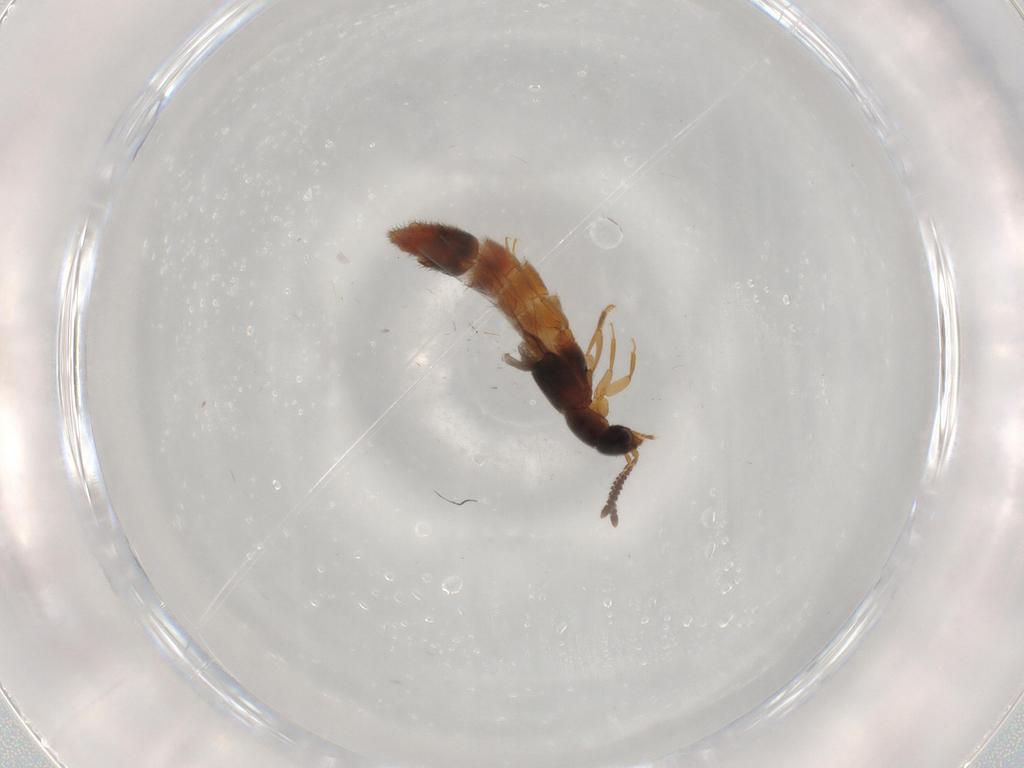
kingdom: Animalia
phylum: Arthropoda
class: Insecta
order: Coleoptera
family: Staphylinidae
